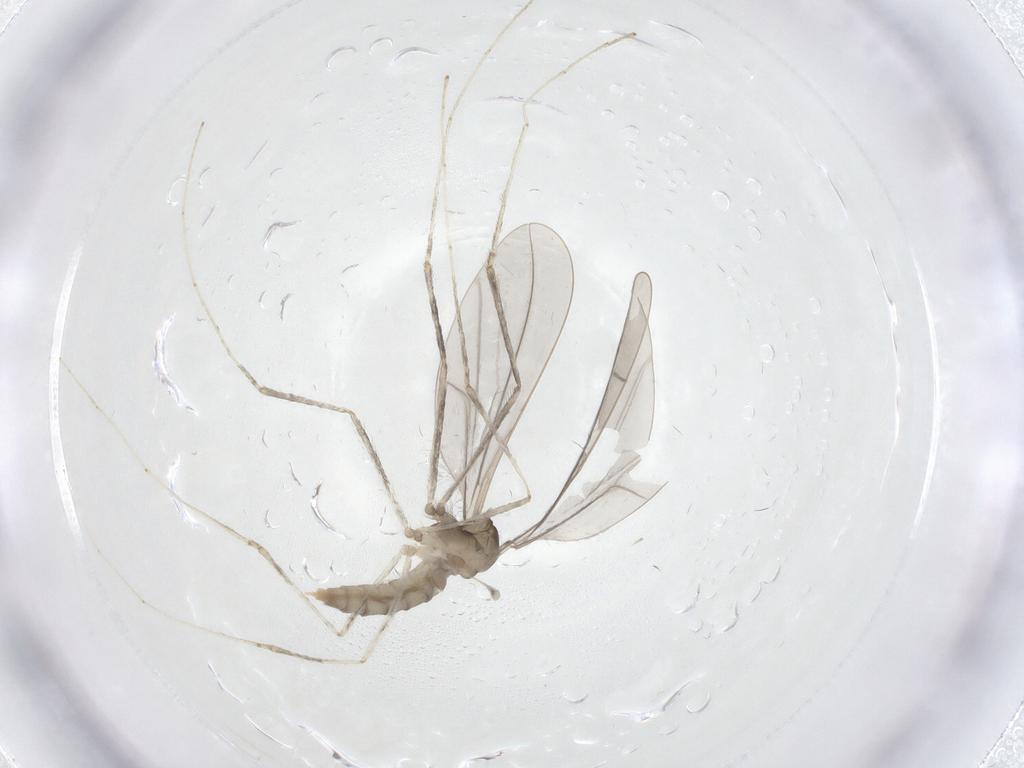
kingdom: Animalia
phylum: Arthropoda
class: Insecta
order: Diptera
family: Cecidomyiidae
